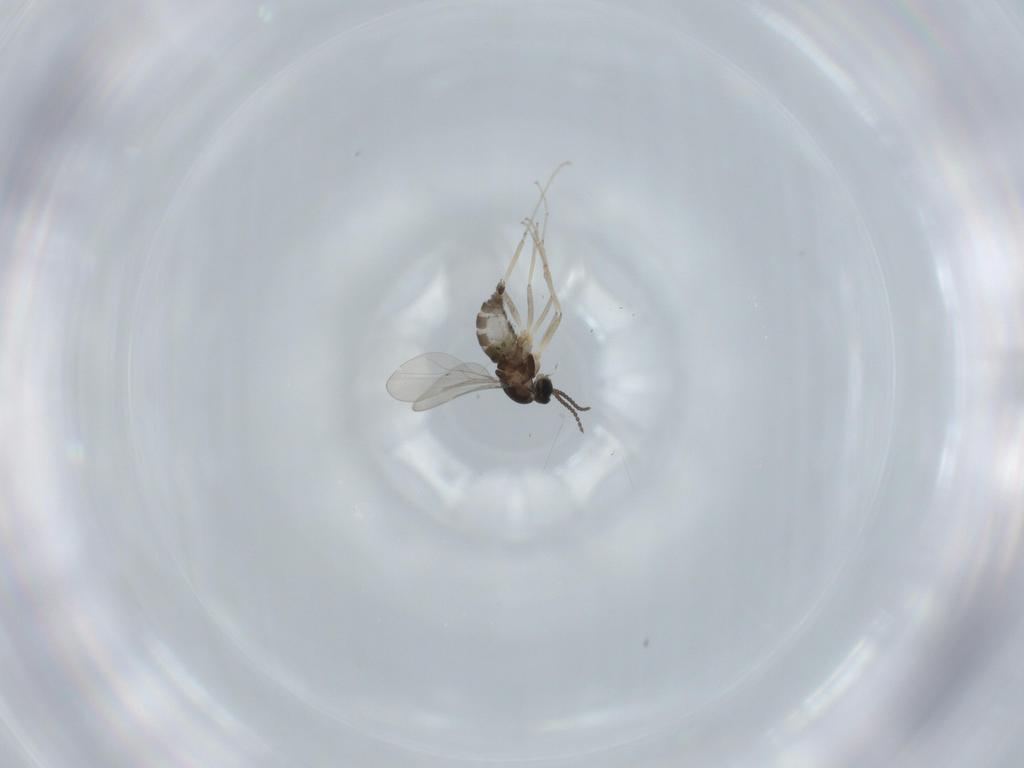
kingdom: Animalia
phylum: Arthropoda
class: Insecta
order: Diptera
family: Cecidomyiidae
